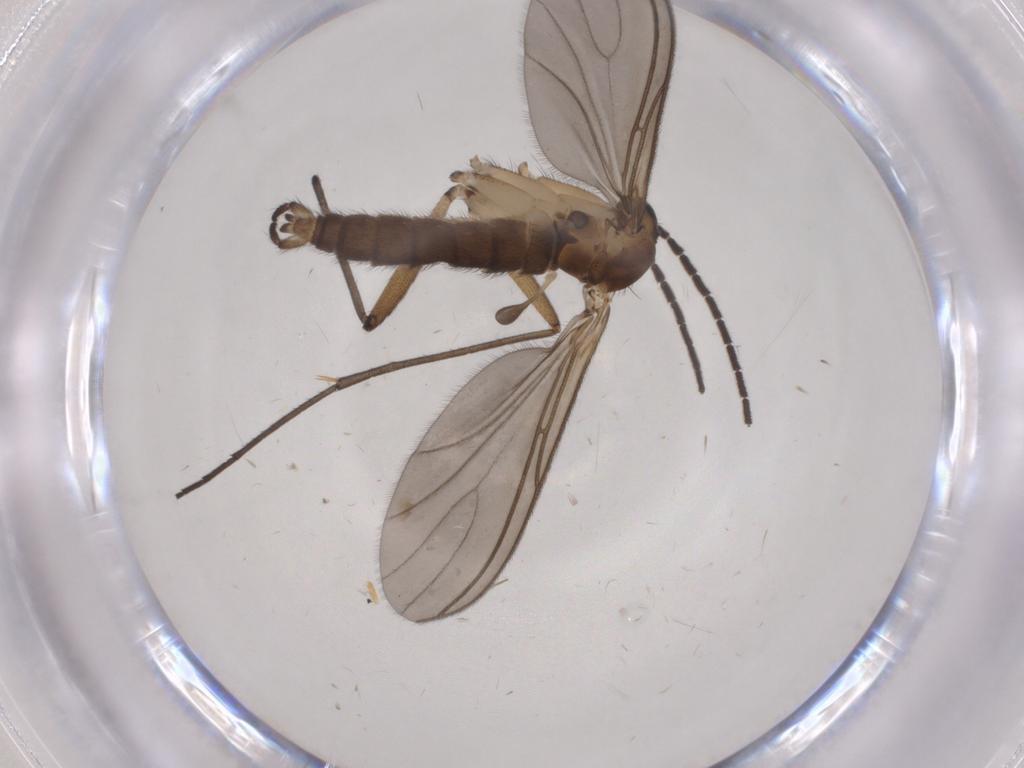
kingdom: Animalia
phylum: Arthropoda
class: Insecta
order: Diptera
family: Sciaridae
